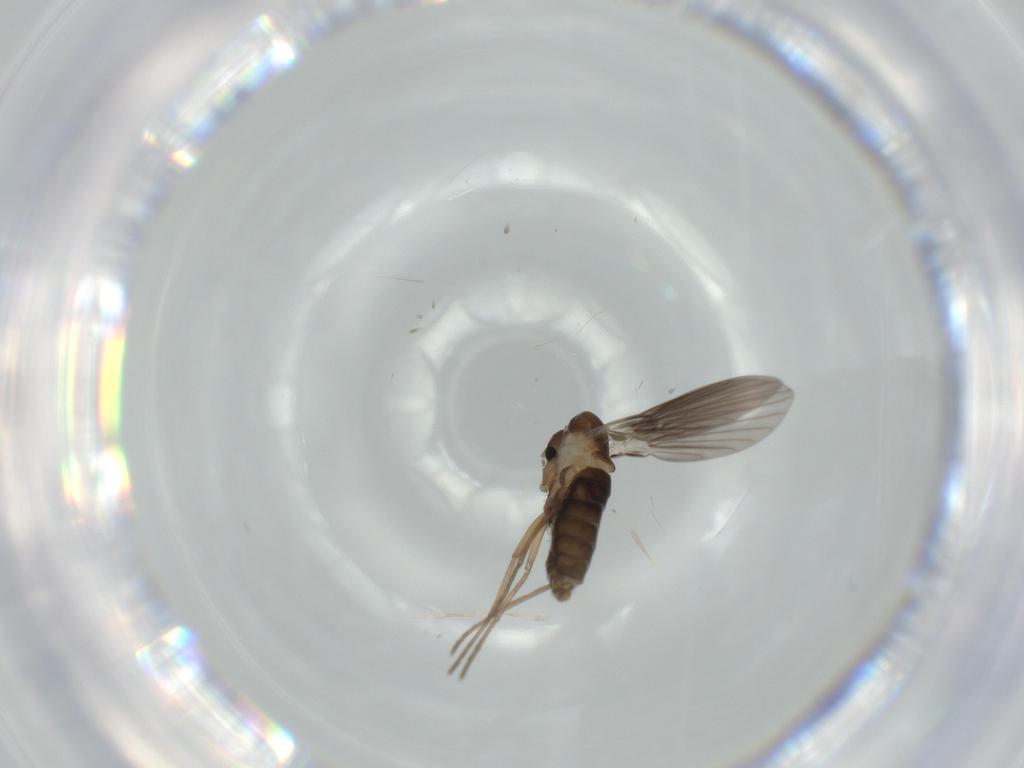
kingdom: Animalia
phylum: Arthropoda
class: Insecta
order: Diptera
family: Psychodidae
